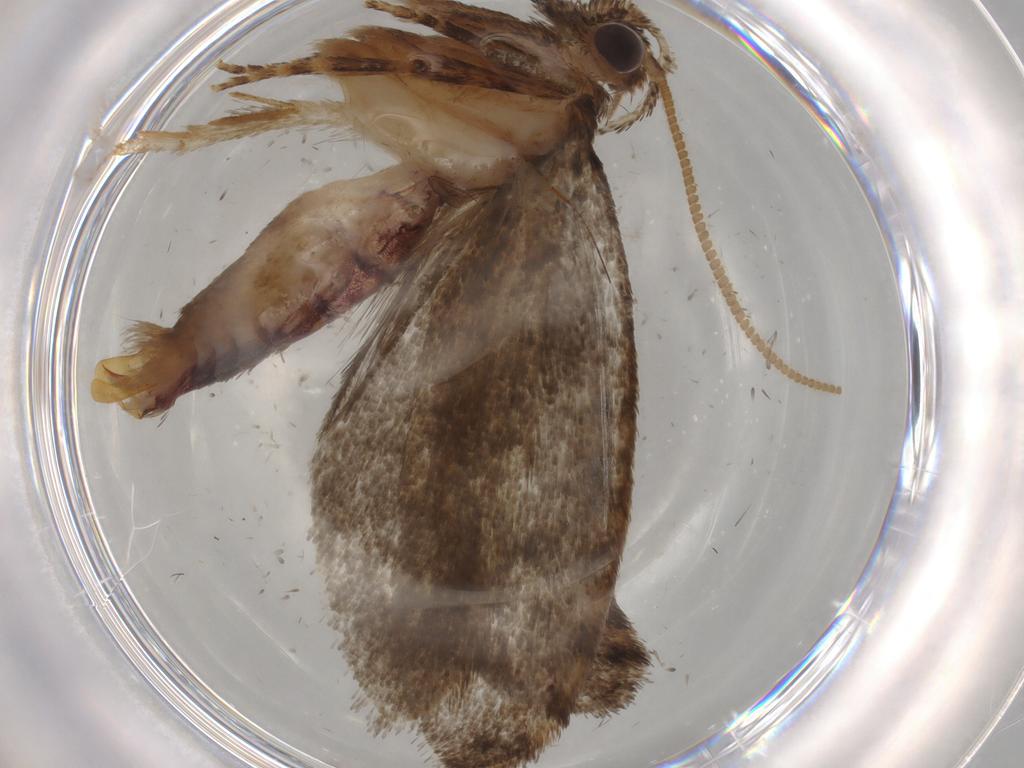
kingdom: Animalia
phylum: Arthropoda
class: Insecta
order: Lepidoptera
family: Tineidae
